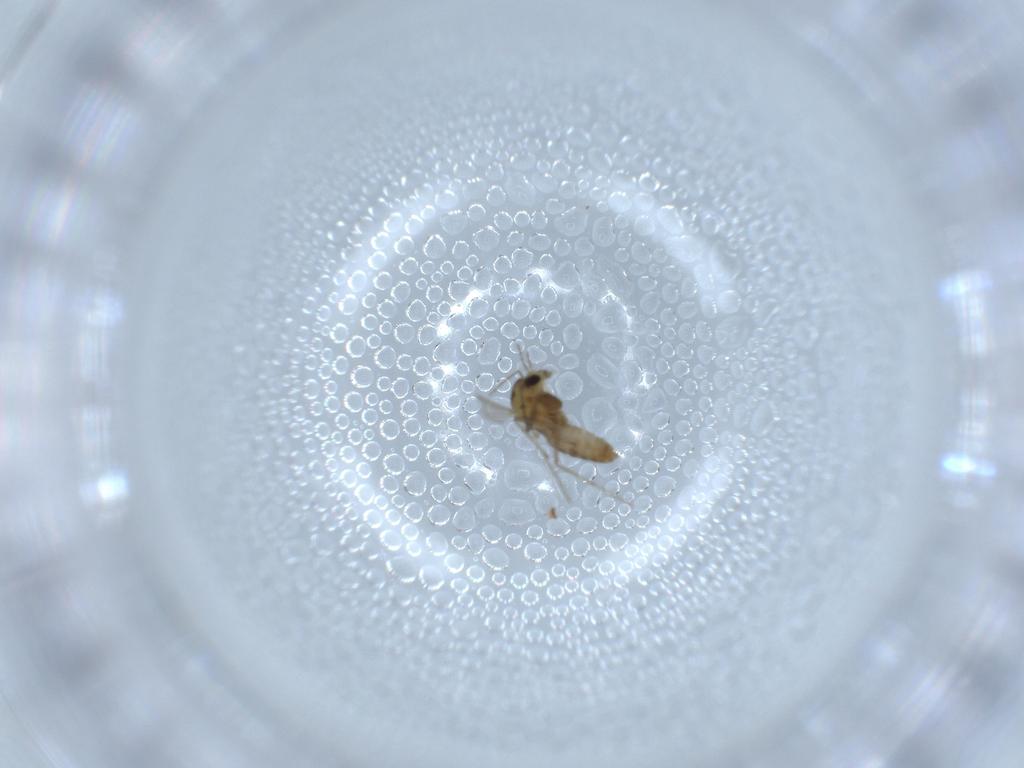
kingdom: Animalia
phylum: Arthropoda
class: Insecta
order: Diptera
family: Chironomidae
